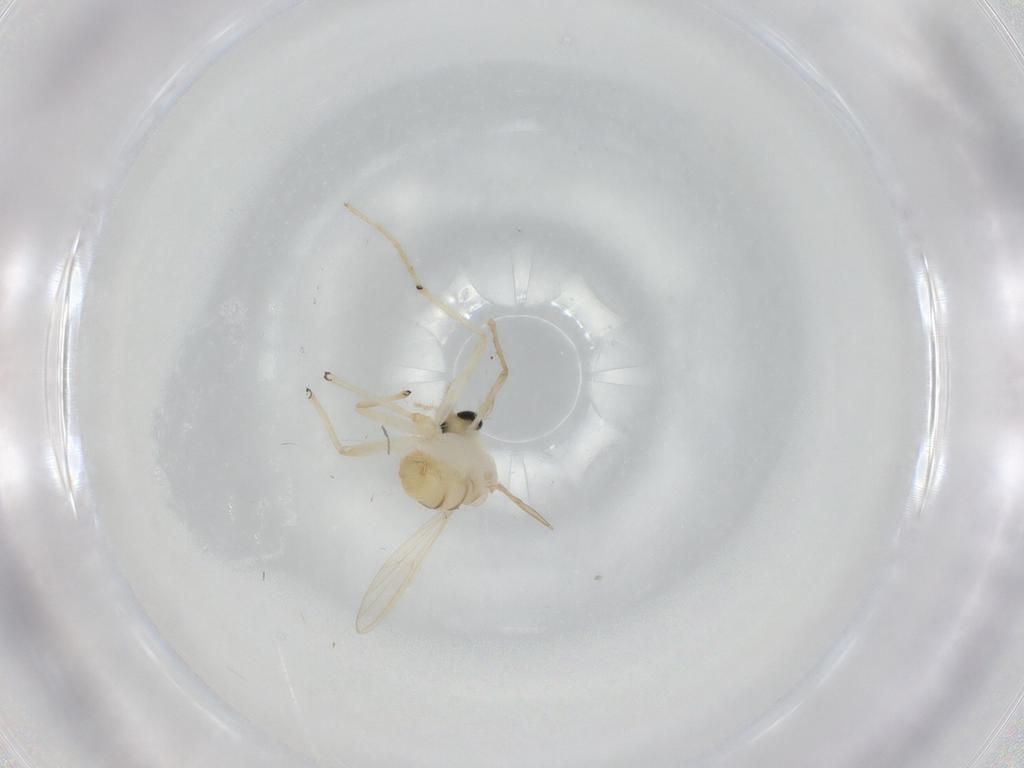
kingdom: Animalia
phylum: Arthropoda
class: Insecta
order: Diptera
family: Chironomidae
